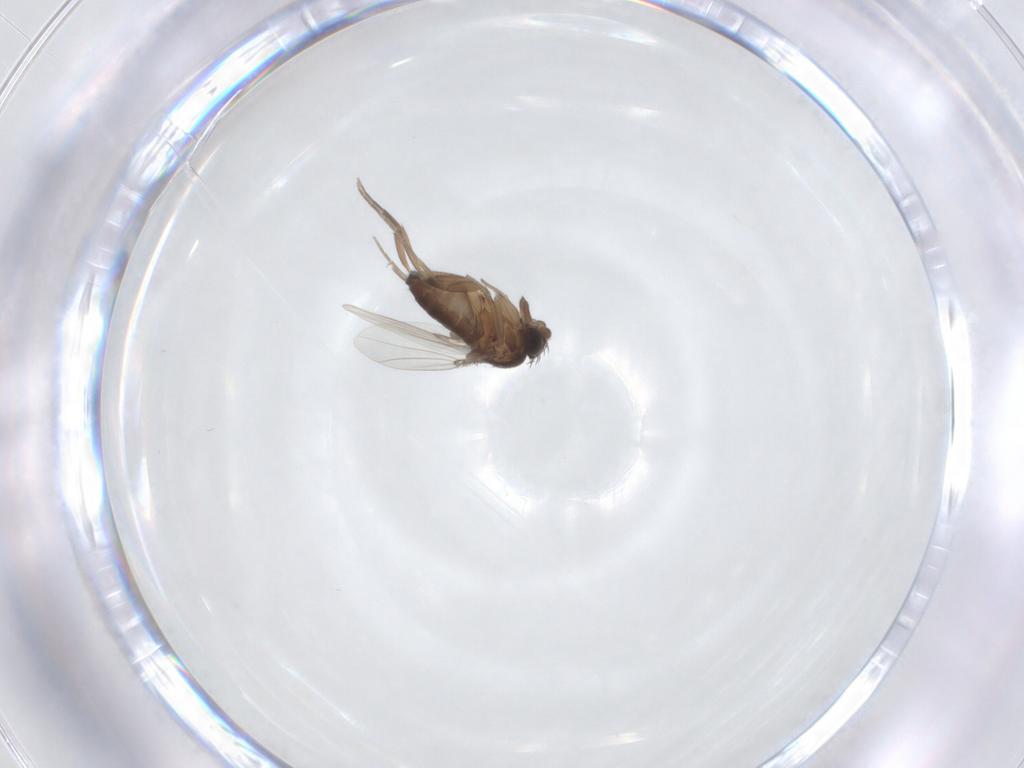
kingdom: Animalia
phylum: Arthropoda
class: Insecta
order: Diptera
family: Phoridae
